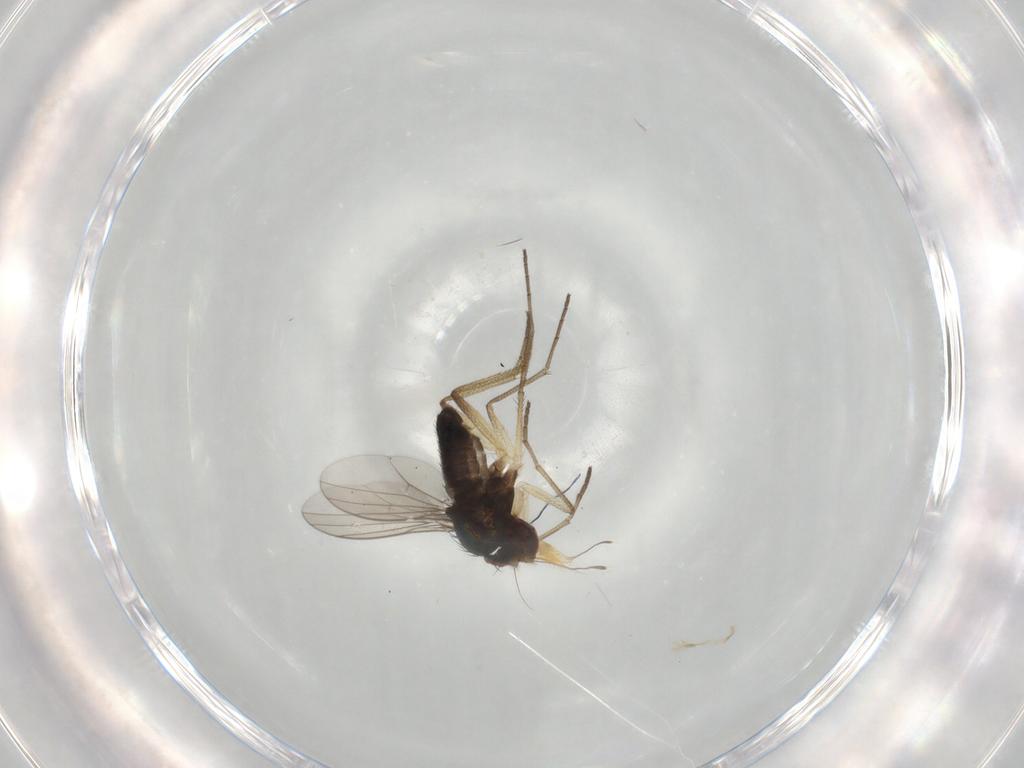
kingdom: Animalia
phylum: Arthropoda
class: Insecta
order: Diptera
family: Dolichopodidae
